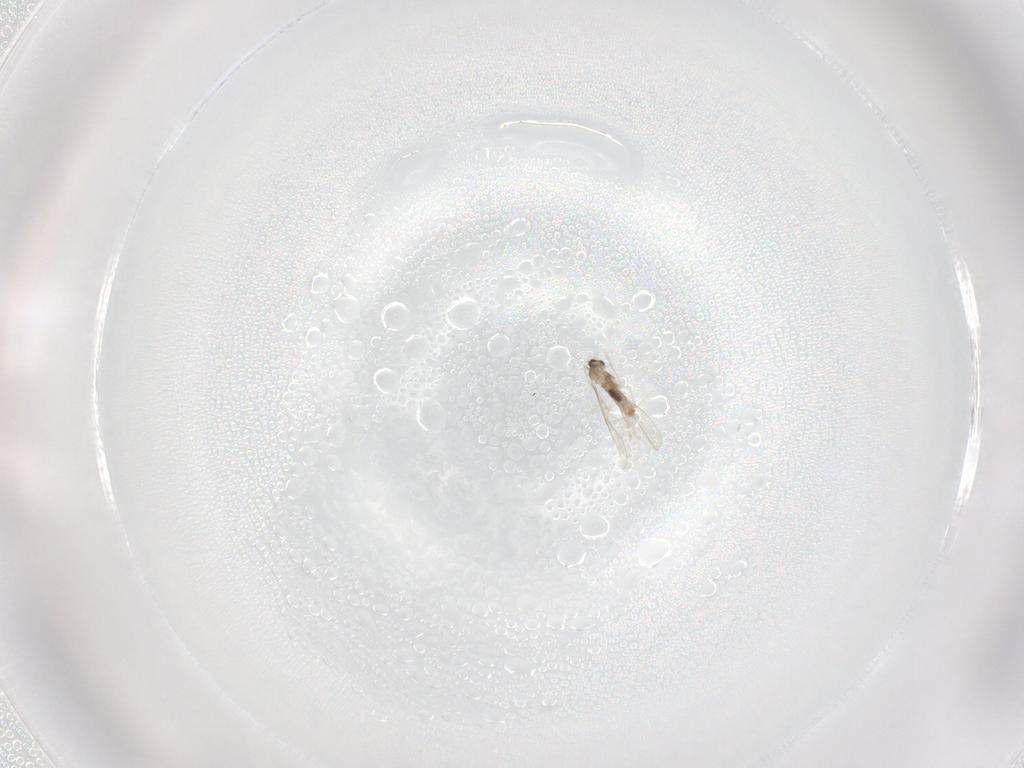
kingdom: Animalia
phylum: Arthropoda
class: Insecta
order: Diptera
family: Cecidomyiidae
